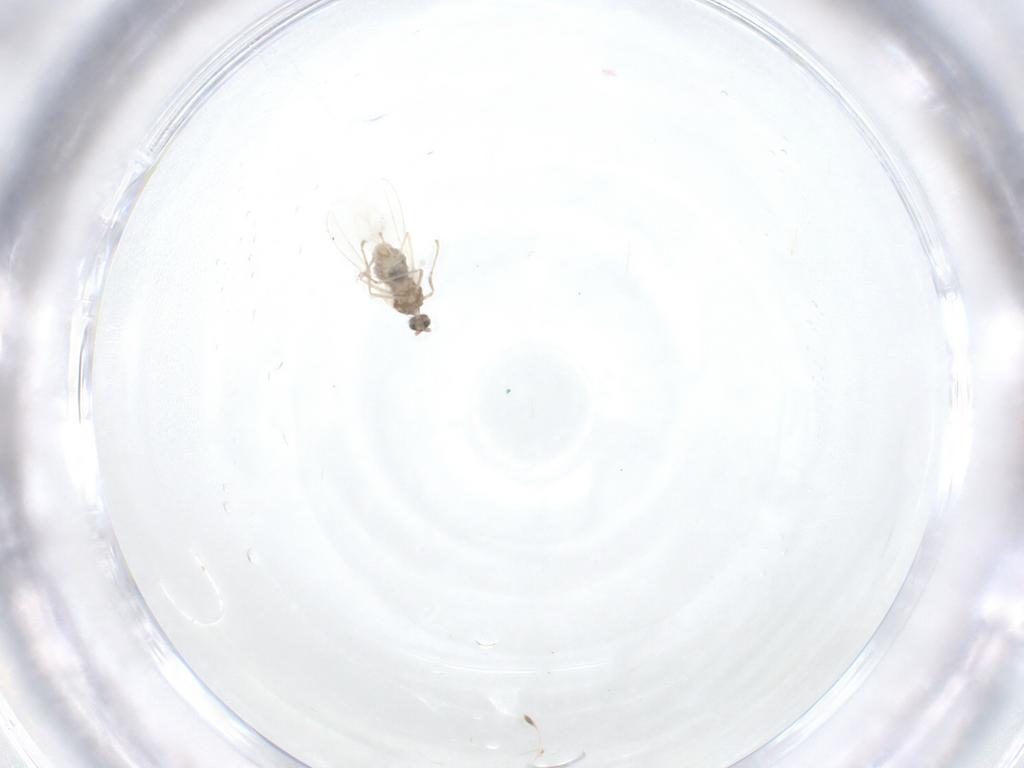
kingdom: Animalia
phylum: Arthropoda
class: Insecta
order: Diptera
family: Cecidomyiidae
